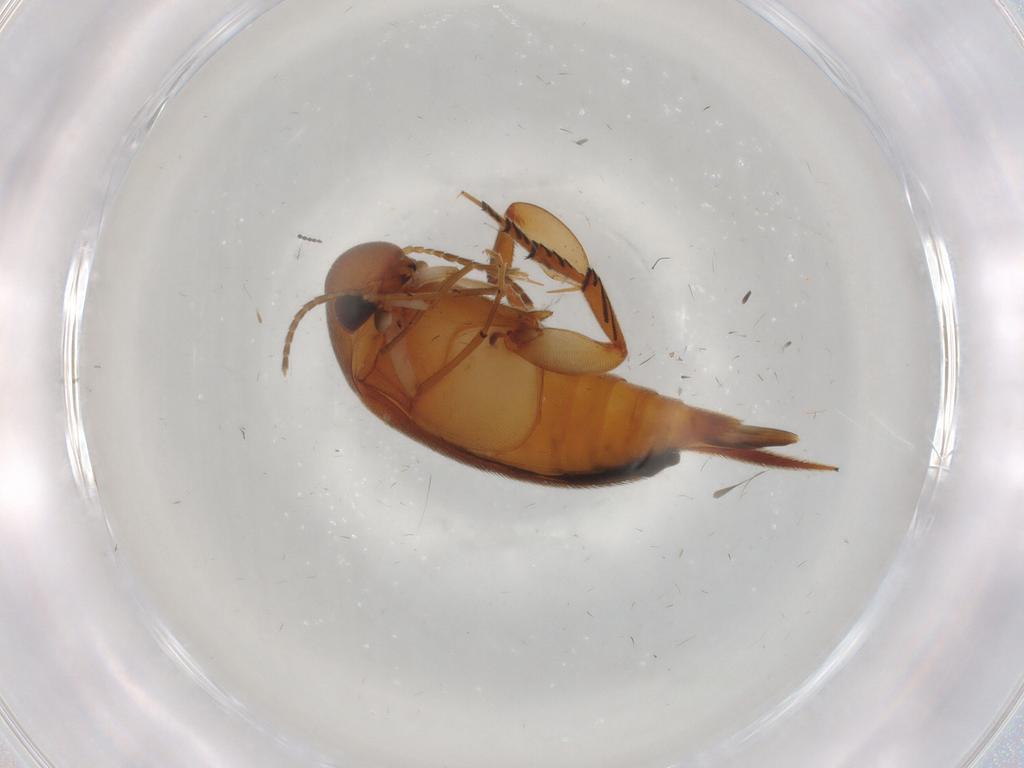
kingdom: Animalia
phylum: Arthropoda
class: Insecta
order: Coleoptera
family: Mordellidae
